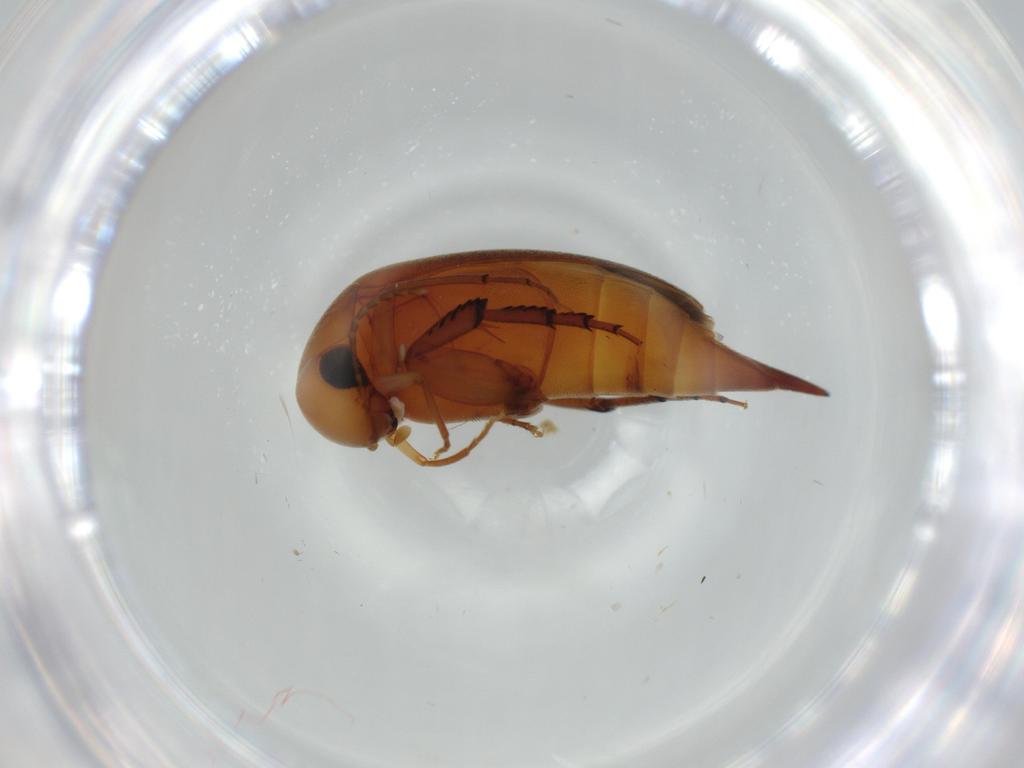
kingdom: Animalia
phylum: Arthropoda
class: Insecta
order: Coleoptera
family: Mordellidae
